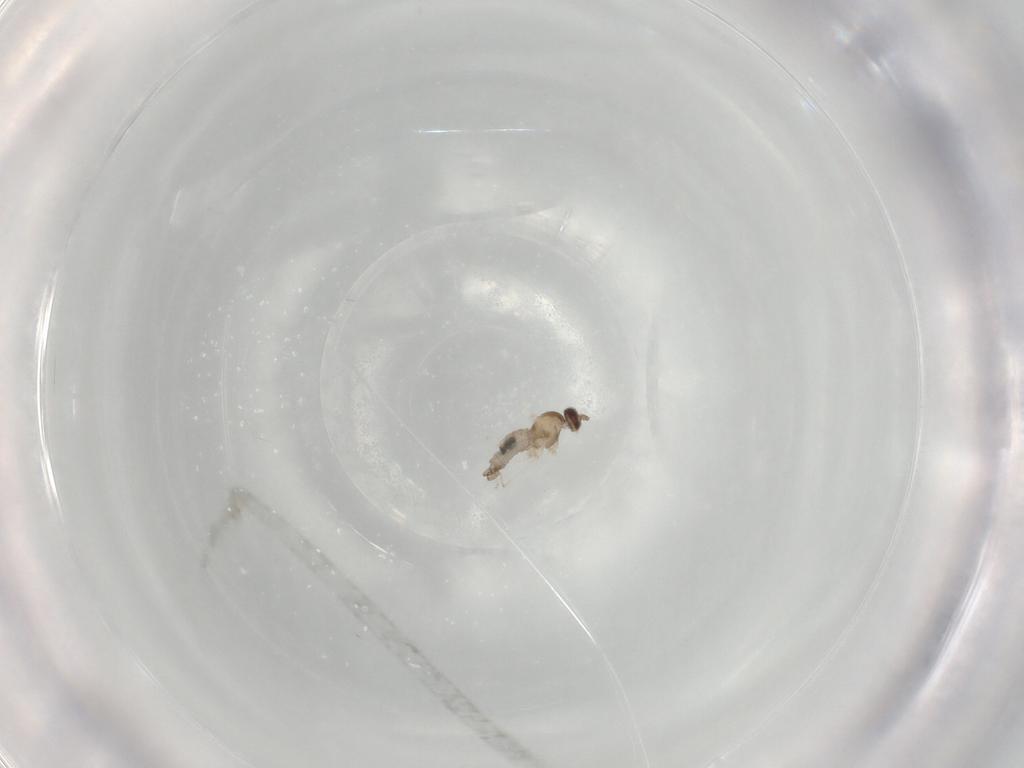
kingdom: Animalia
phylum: Arthropoda
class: Insecta
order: Diptera
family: Cecidomyiidae
